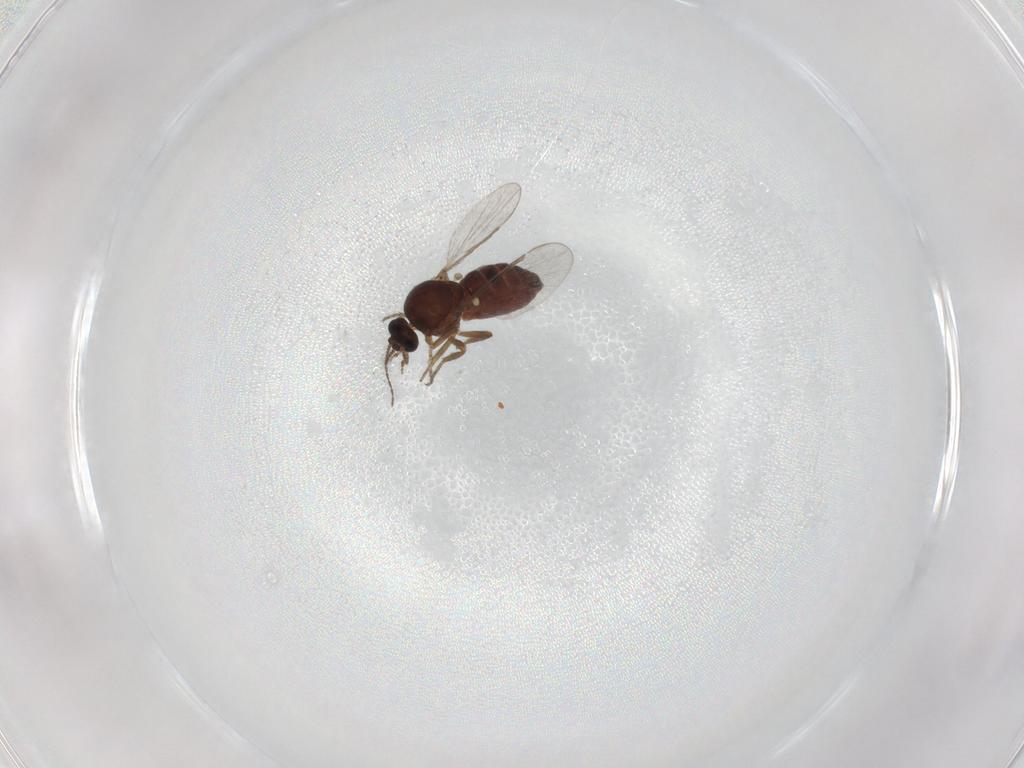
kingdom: Animalia
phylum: Arthropoda
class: Insecta
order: Diptera
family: Ceratopogonidae
